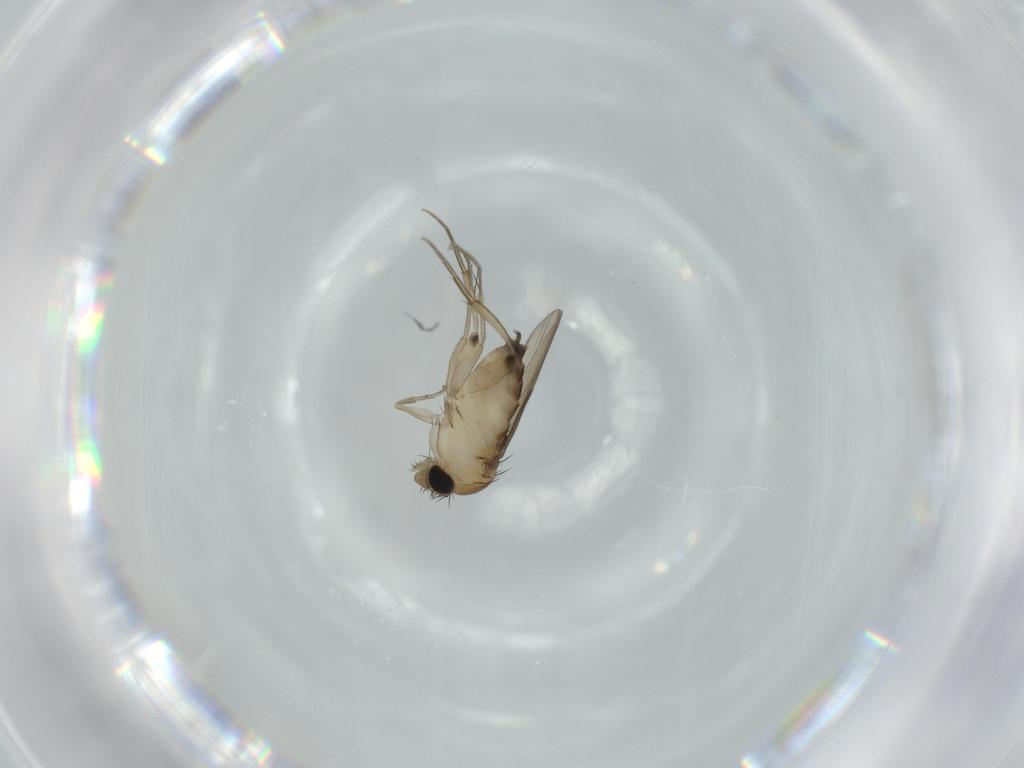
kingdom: Animalia
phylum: Arthropoda
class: Insecta
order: Diptera
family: Phoridae
